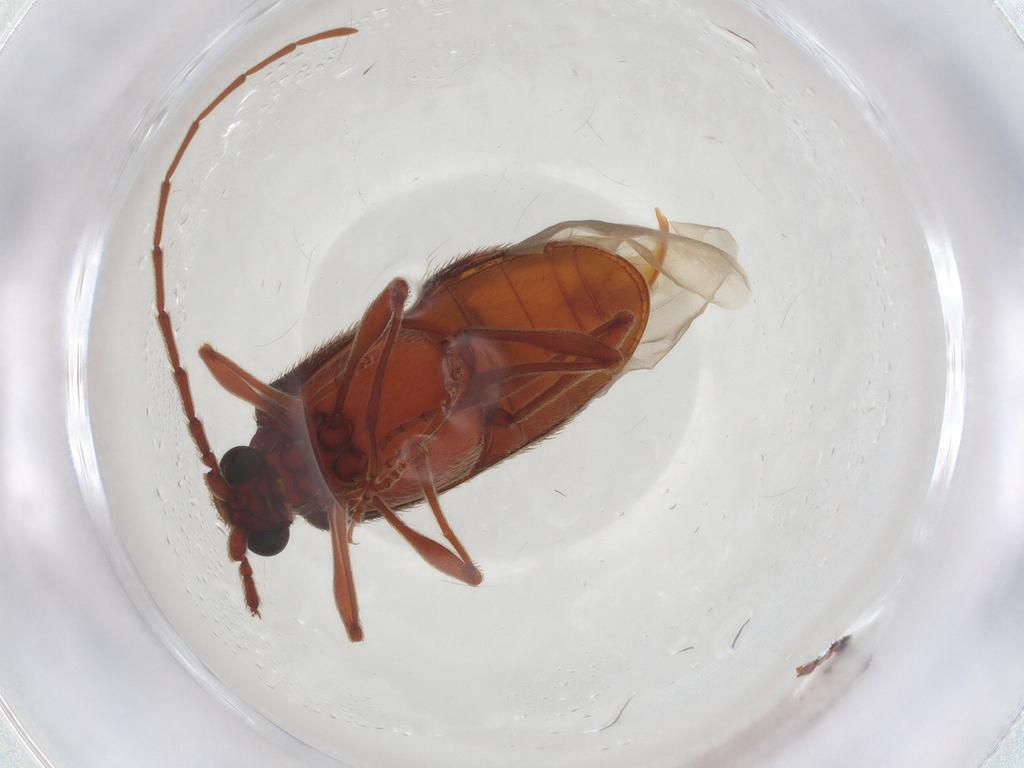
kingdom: Animalia
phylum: Arthropoda
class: Insecta
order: Coleoptera
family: Ptinidae
